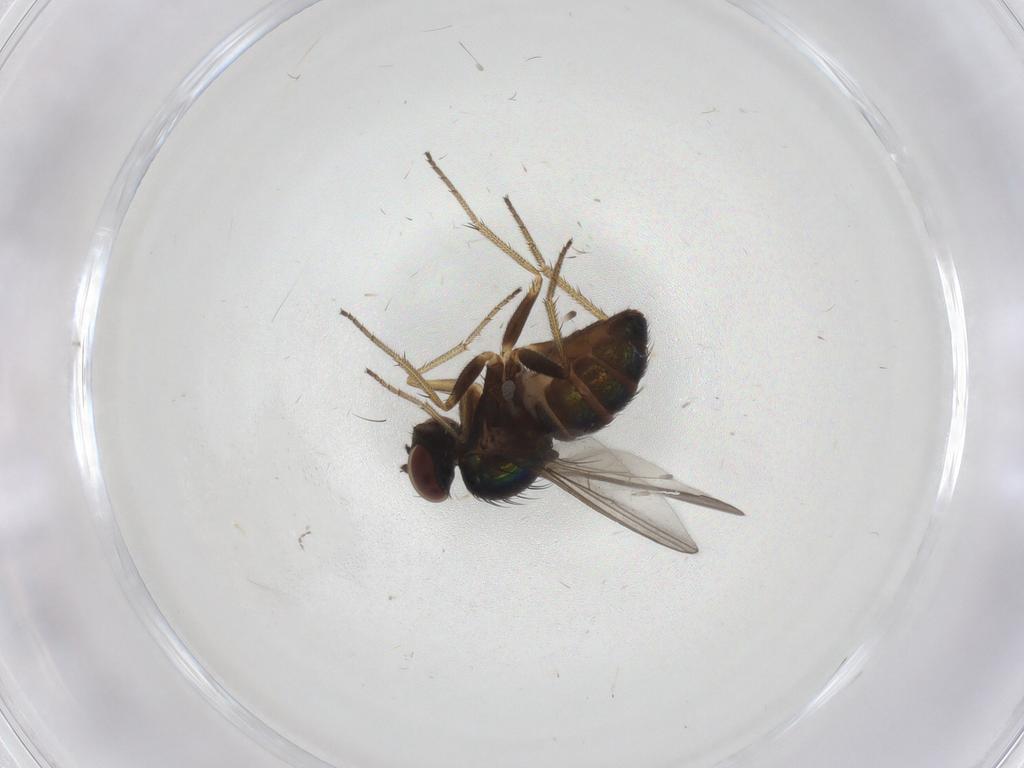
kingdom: Animalia
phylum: Arthropoda
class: Insecta
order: Diptera
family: Dolichopodidae
